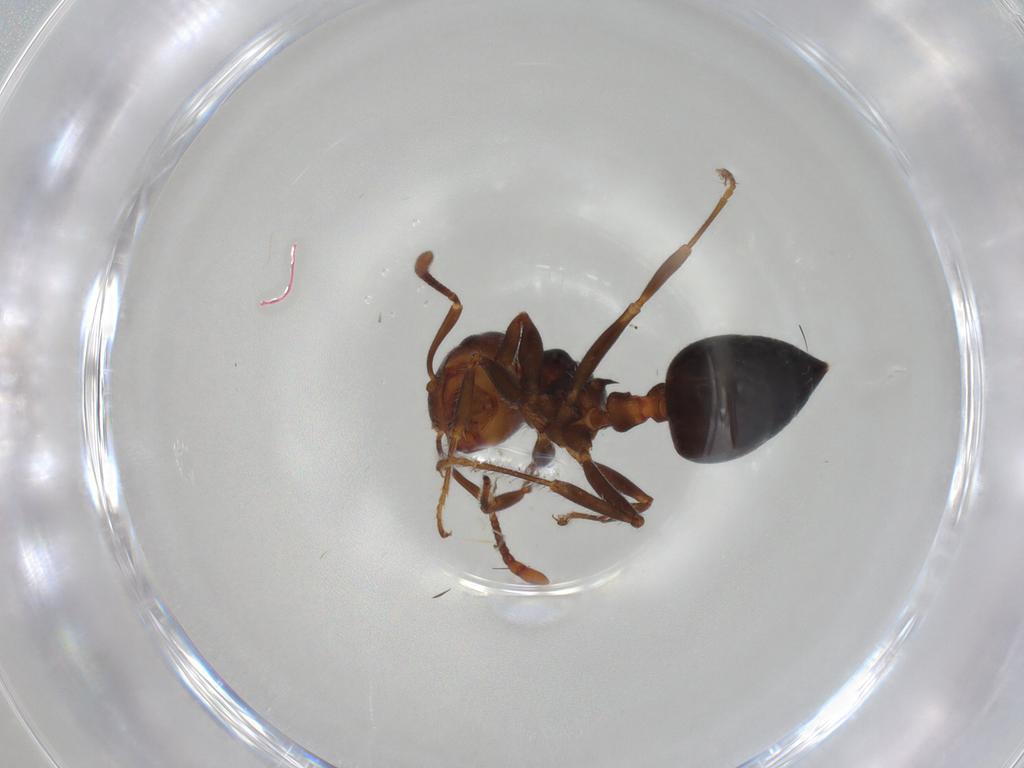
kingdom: Animalia
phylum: Arthropoda
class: Insecta
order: Hymenoptera
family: Formicidae
